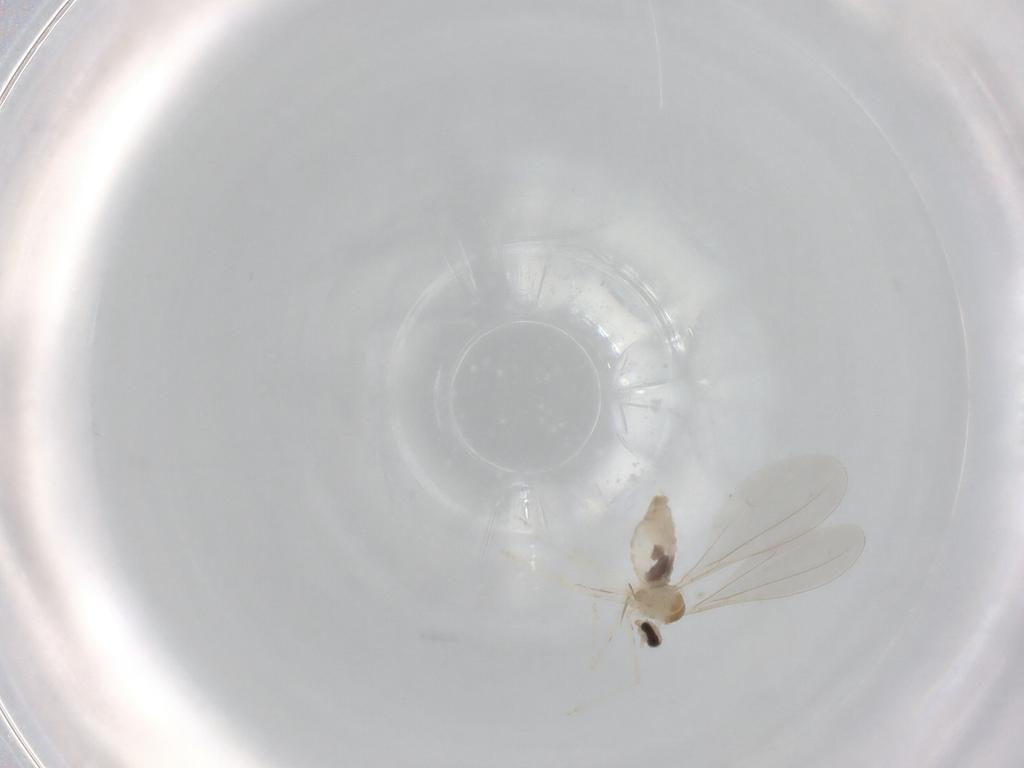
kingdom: Animalia
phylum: Arthropoda
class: Insecta
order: Diptera
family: Cecidomyiidae
